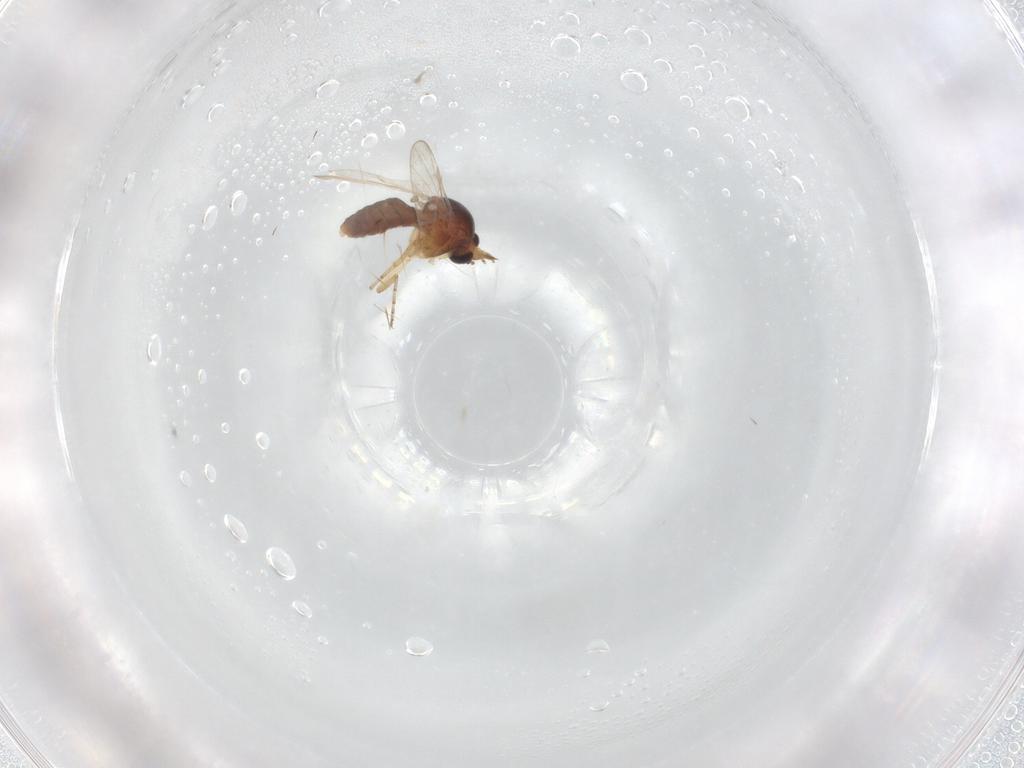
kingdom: Animalia
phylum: Arthropoda
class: Insecta
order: Diptera
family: Ceratopogonidae
